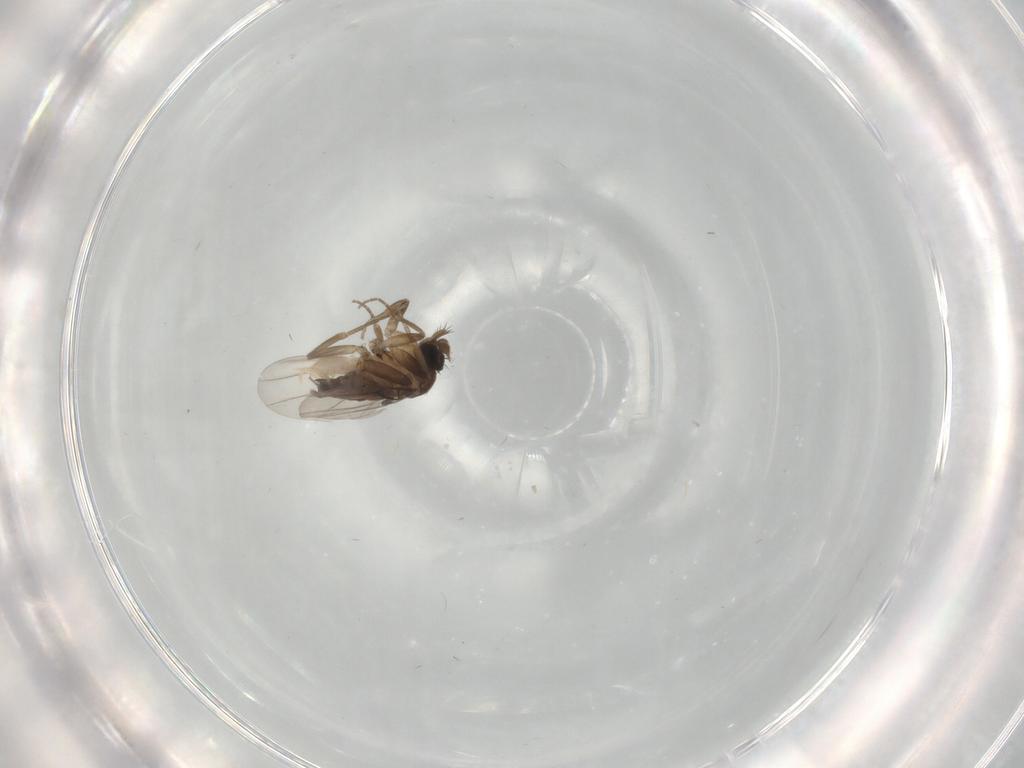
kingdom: Animalia
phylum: Arthropoda
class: Insecta
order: Diptera
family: Phoridae
